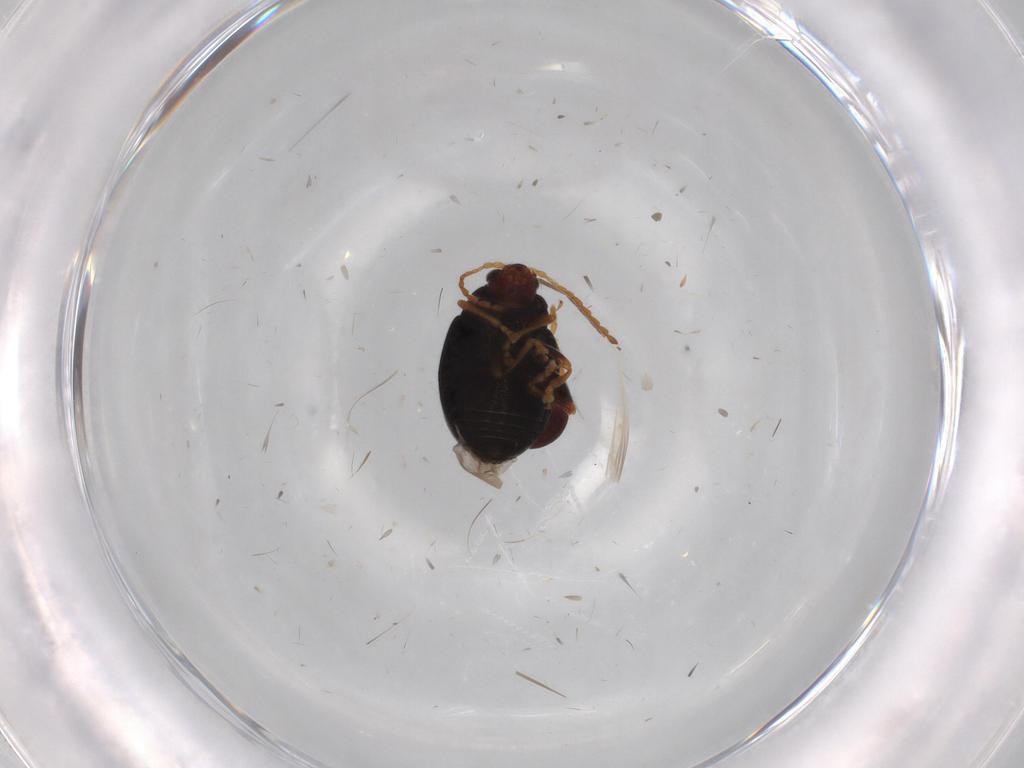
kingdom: Animalia
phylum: Arthropoda
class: Insecta
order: Coleoptera
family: Chrysomelidae
